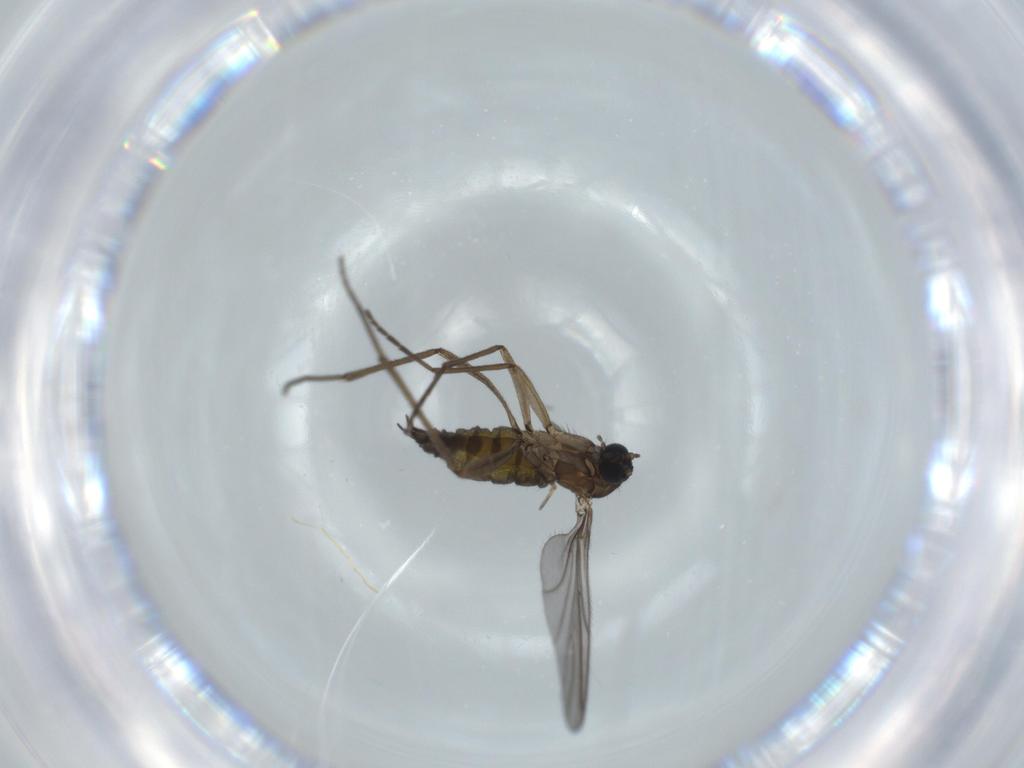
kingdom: Animalia
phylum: Arthropoda
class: Insecta
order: Diptera
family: Sciaridae
